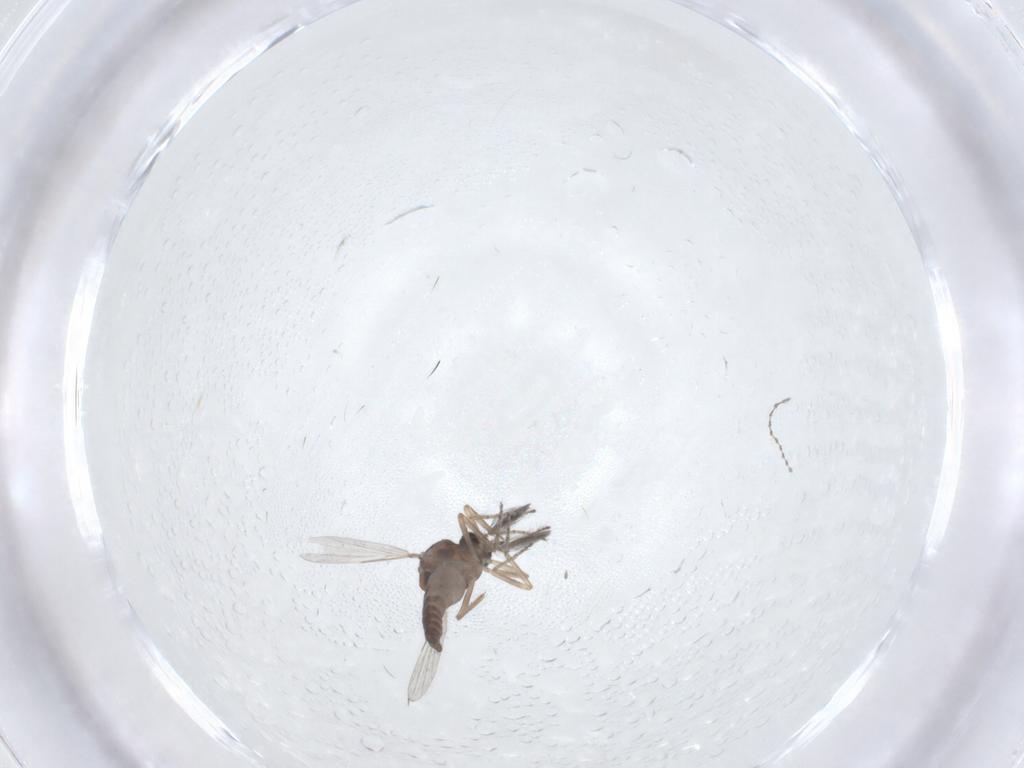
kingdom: Animalia
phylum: Arthropoda
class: Insecta
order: Diptera
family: Ceratopogonidae
